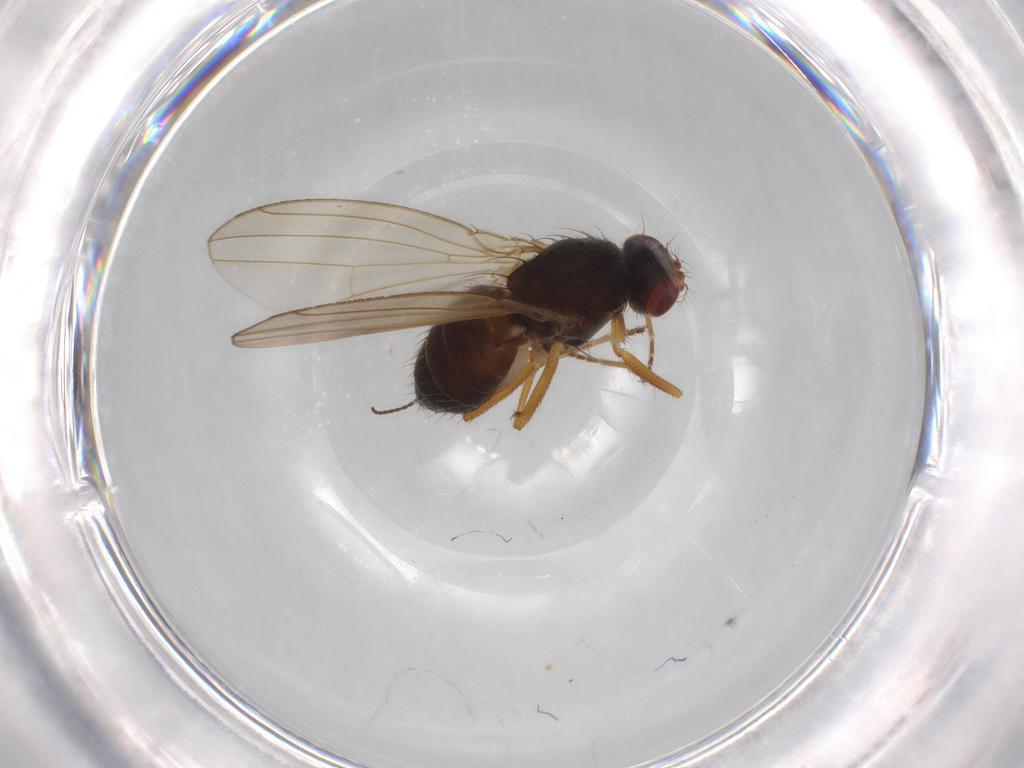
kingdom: Animalia
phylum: Arthropoda
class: Insecta
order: Diptera
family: Drosophilidae
